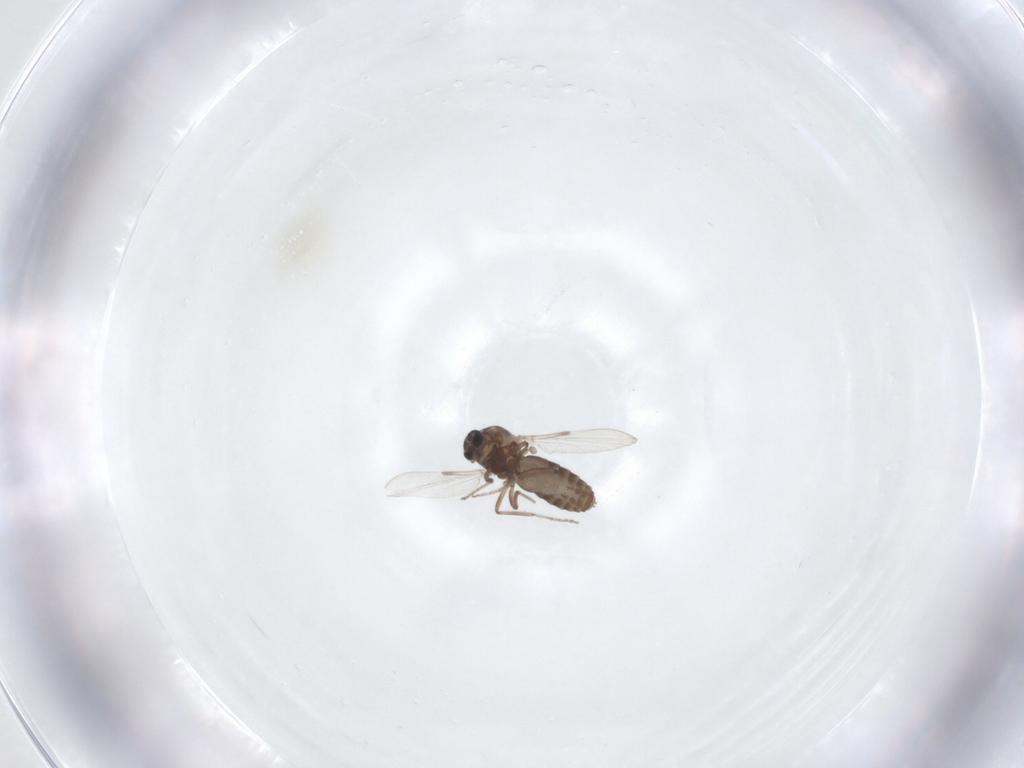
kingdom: Animalia
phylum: Arthropoda
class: Insecta
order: Diptera
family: Ceratopogonidae
